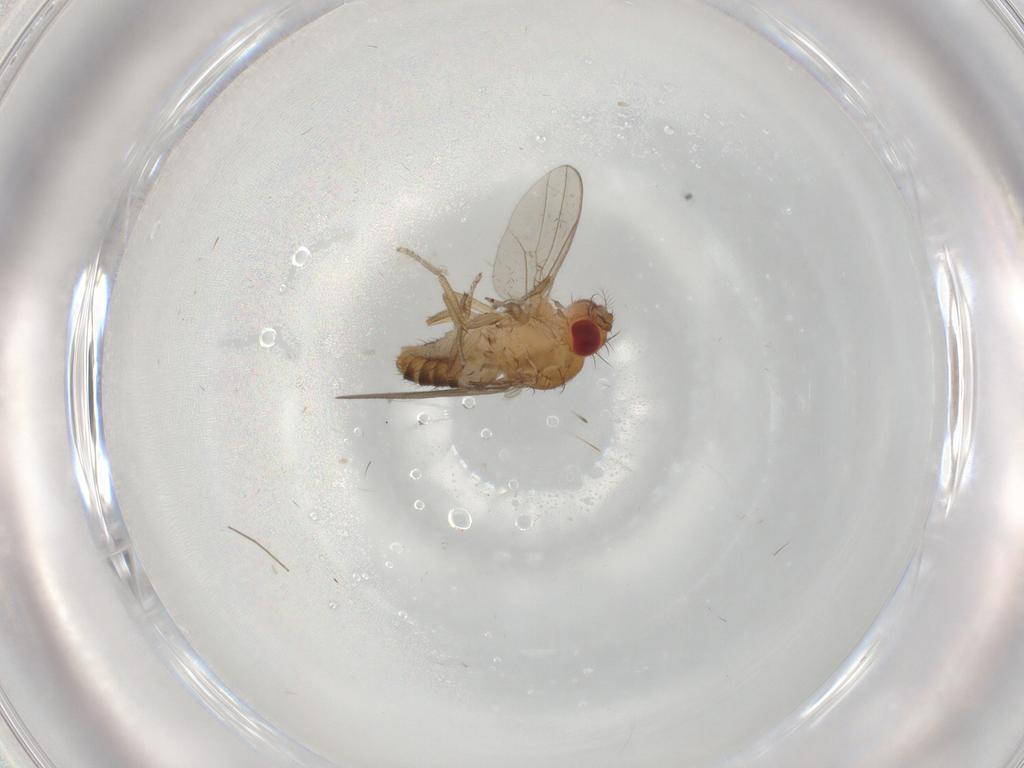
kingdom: Animalia
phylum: Arthropoda
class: Insecta
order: Diptera
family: Drosophilidae
